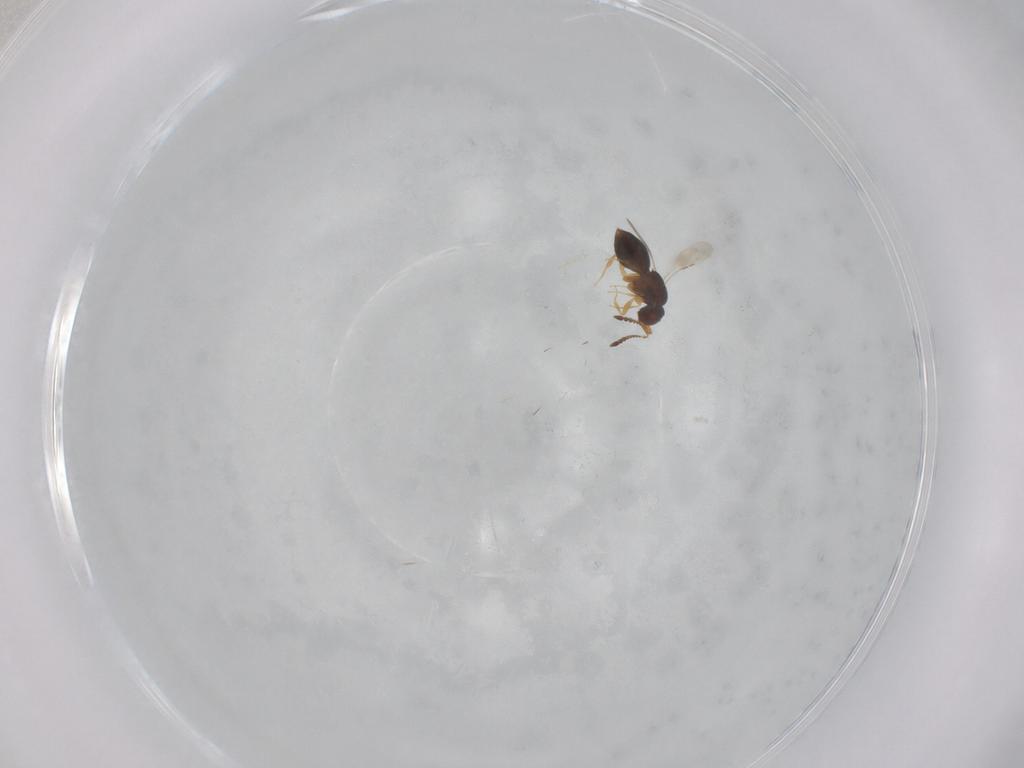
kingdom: Animalia
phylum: Arthropoda
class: Insecta
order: Hymenoptera
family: Ceraphronidae
